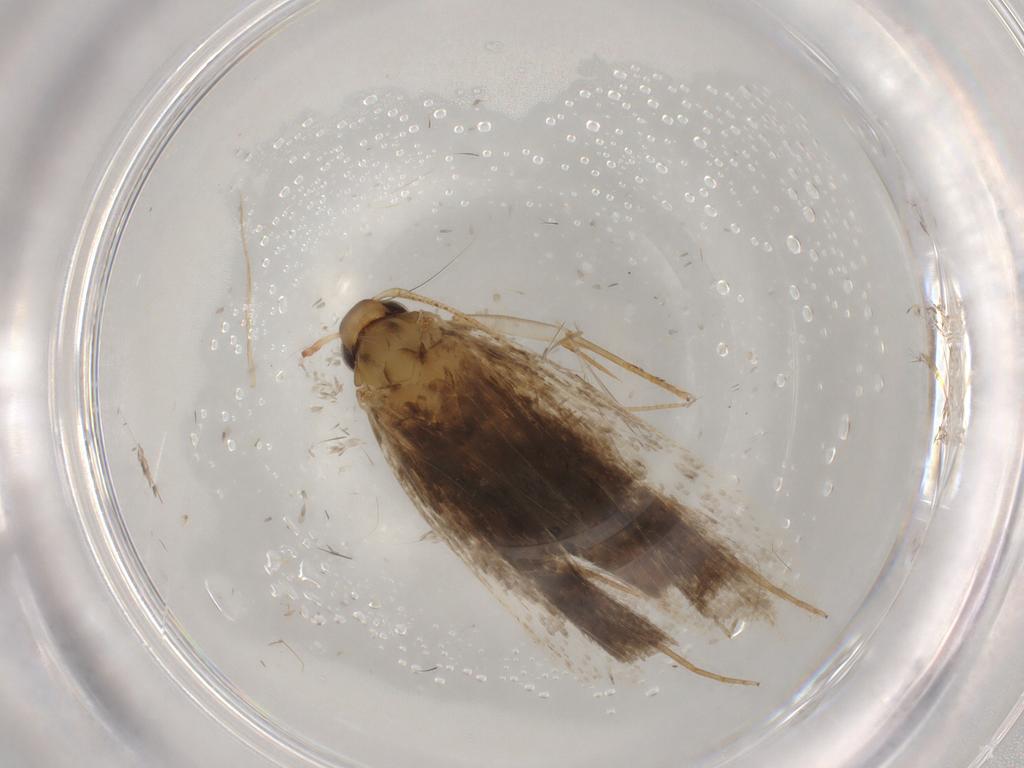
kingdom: Animalia
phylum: Arthropoda
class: Insecta
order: Lepidoptera
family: Gelechiidae
